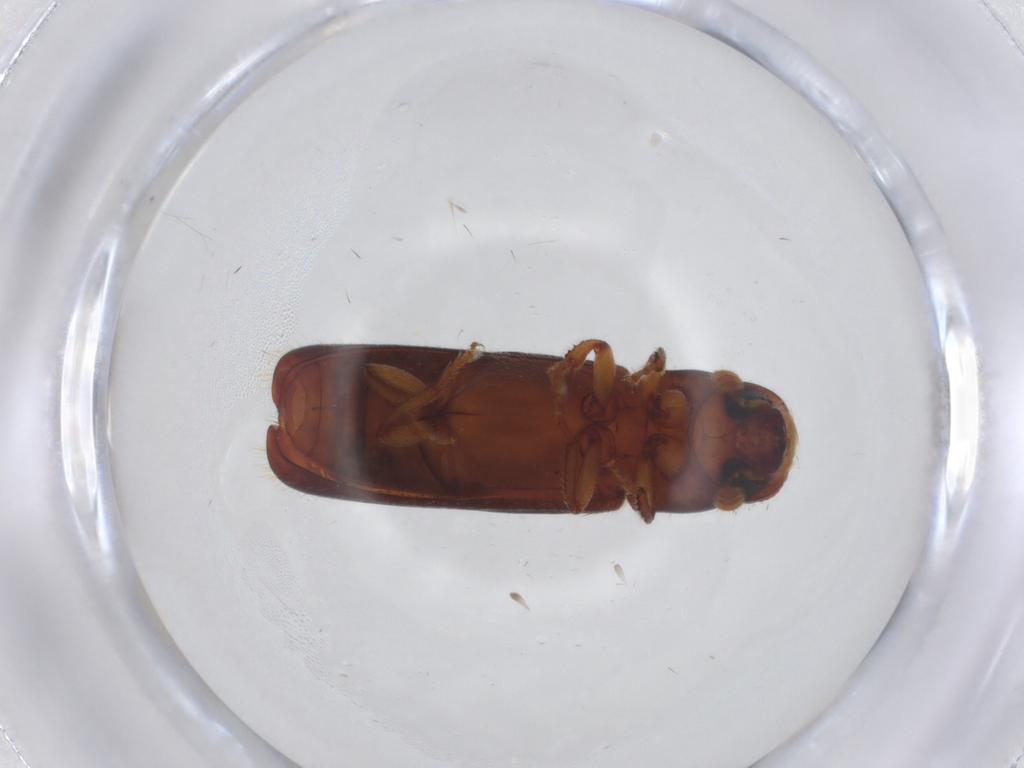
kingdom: Animalia
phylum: Arthropoda
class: Insecta
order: Coleoptera
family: Curculionidae
